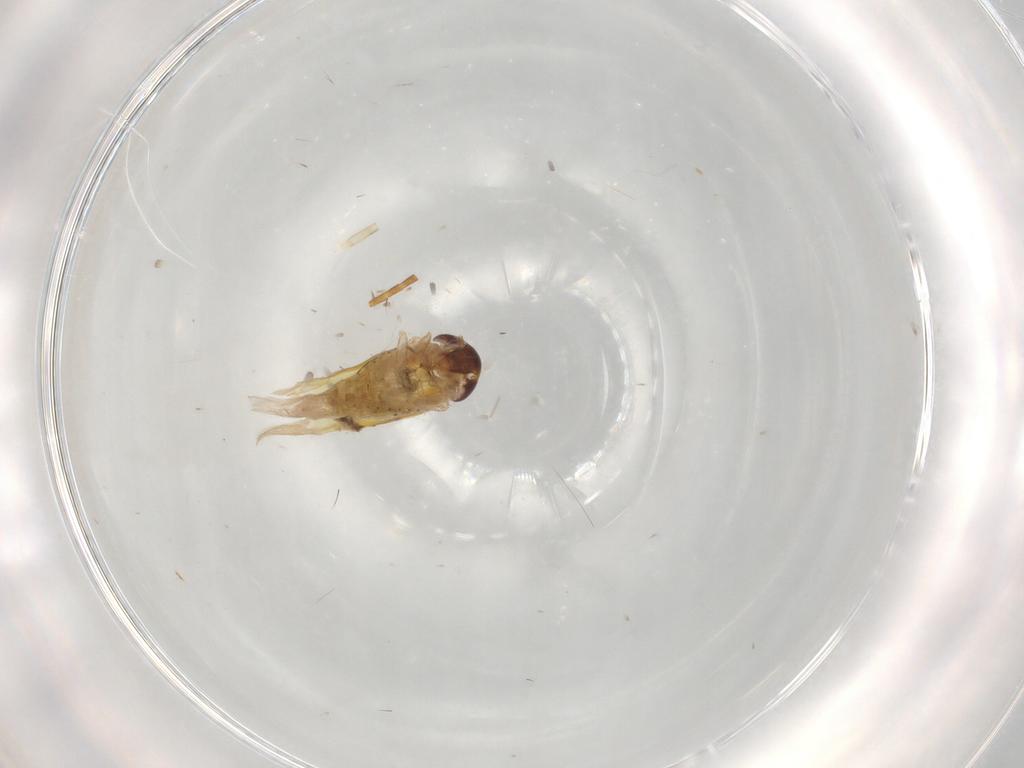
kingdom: Animalia
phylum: Arthropoda
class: Insecta
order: Hemiptera
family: Cicadellidae
